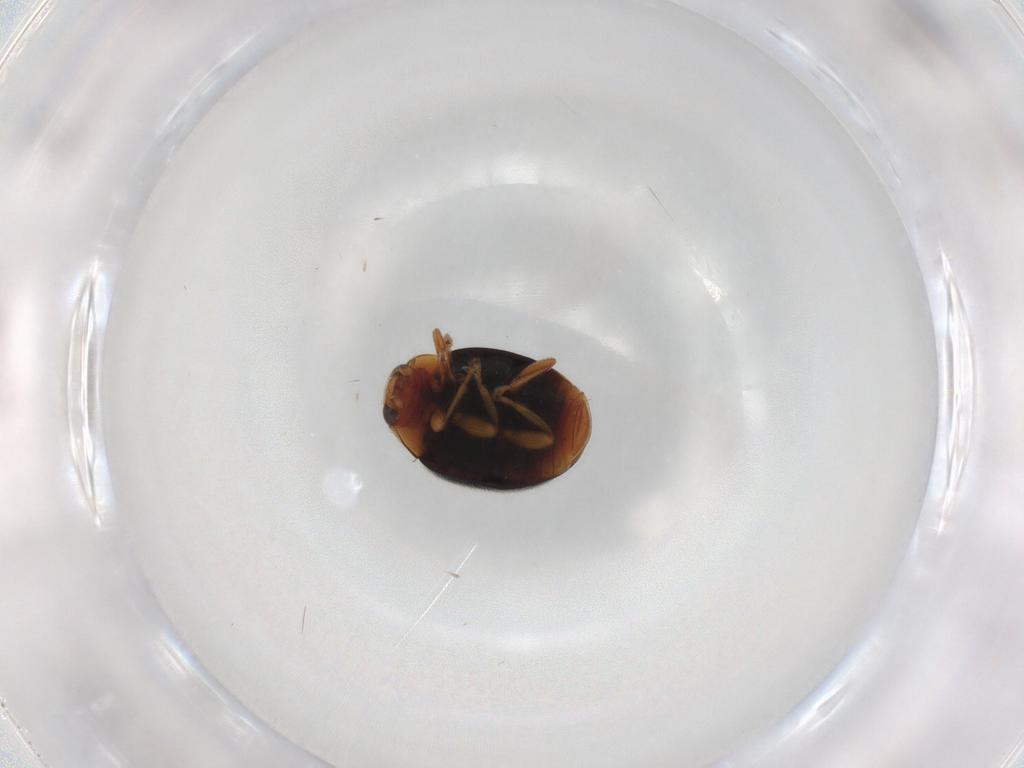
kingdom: Animalia
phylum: Arthropoda
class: Insecta
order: Coleoptera
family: Coccinellidae
